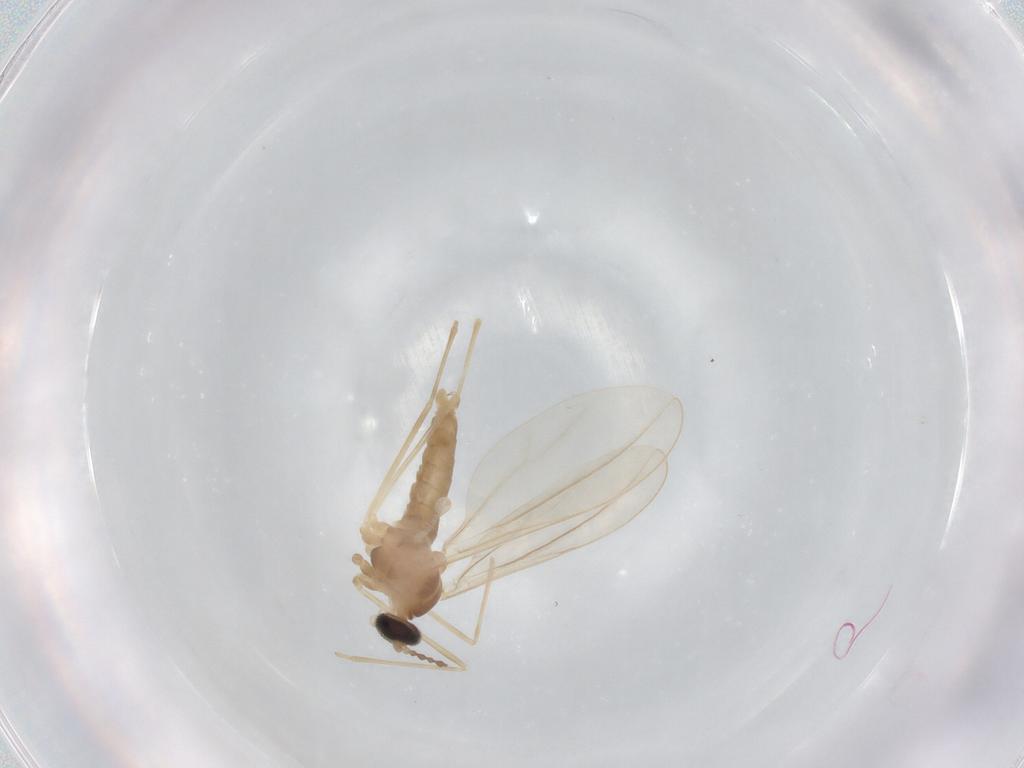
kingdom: Animalia
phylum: Arthropoda
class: Insecta
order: Diptera
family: Cecidomyiidae
